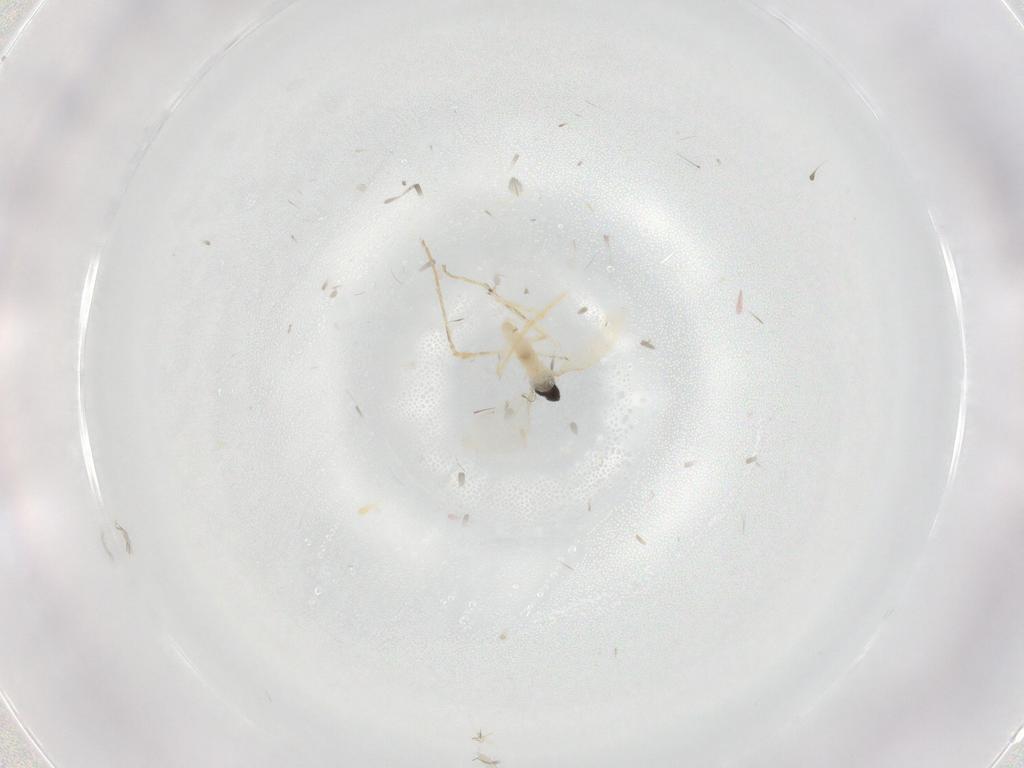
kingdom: Animalia
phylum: Arthropoda
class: Insecta
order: Diptera
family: Cecidomyiidae
